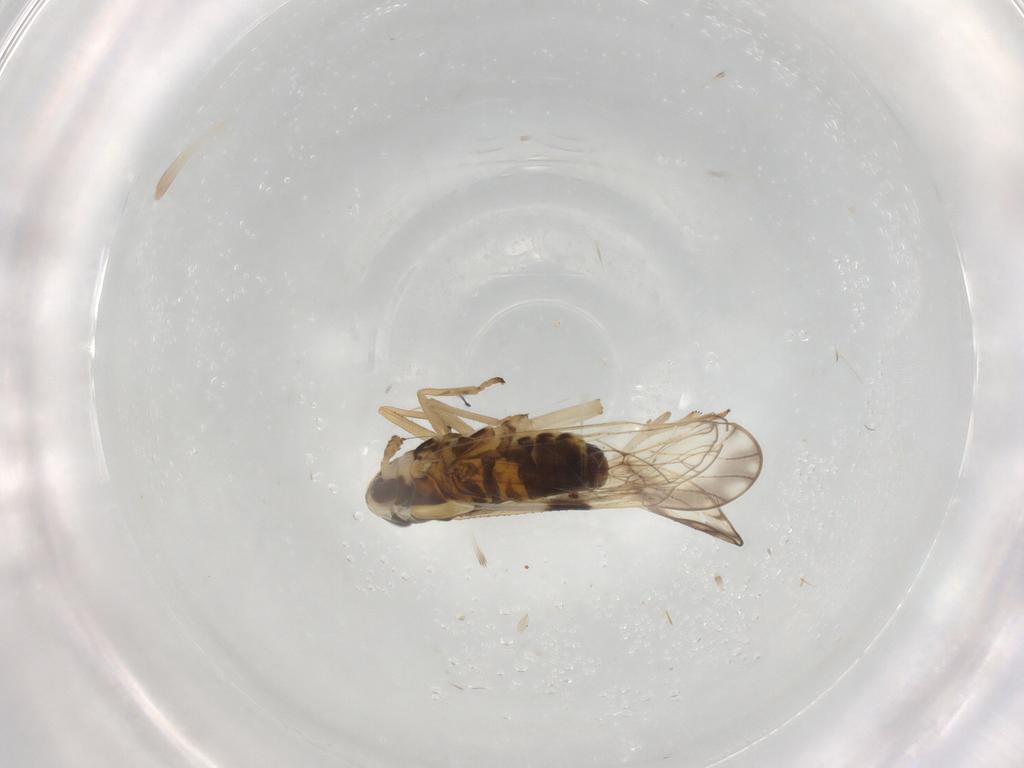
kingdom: Animalia
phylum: Arthropoda
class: Insecta
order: Hemiptera
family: Delphacidae
